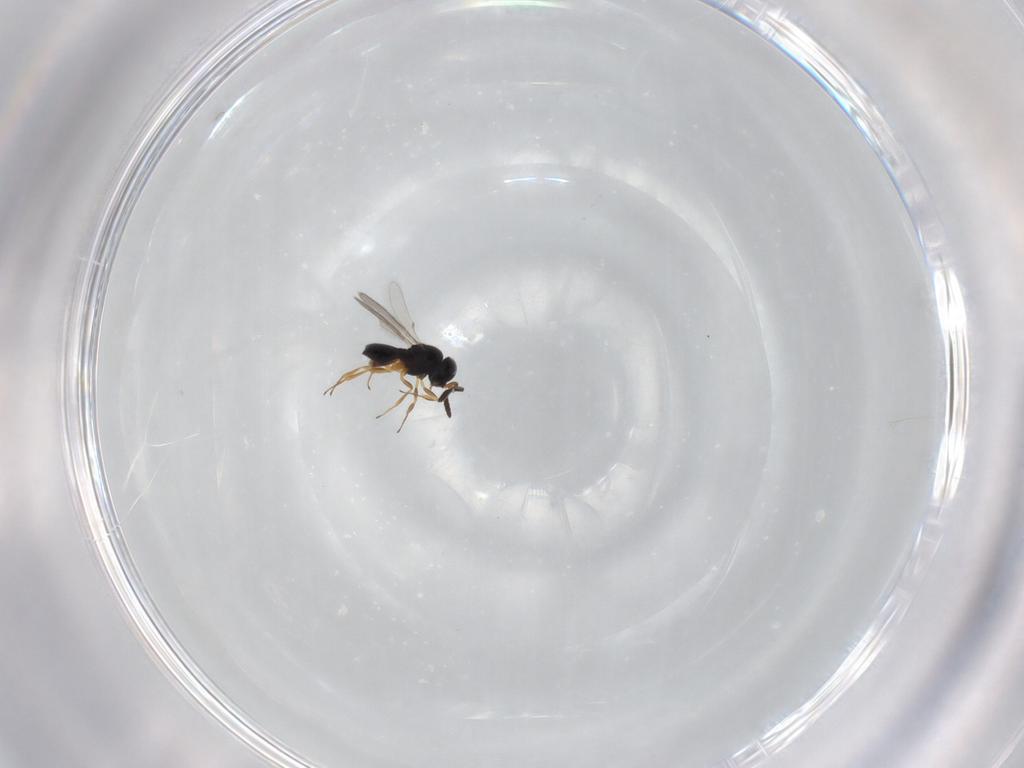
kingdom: Animalia
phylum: Arthropoda
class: Insecta
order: Hymenoptera
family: Scelionidae
